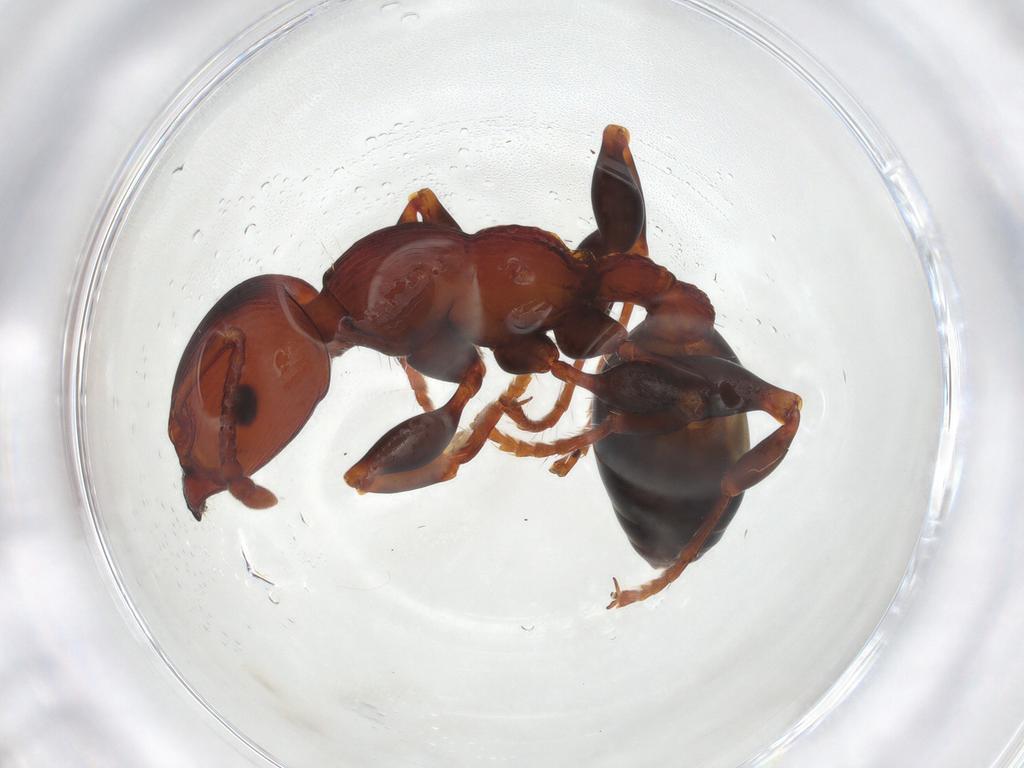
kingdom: Animalia
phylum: Arthropoda
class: Insecta
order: Hymenoptera
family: Formicidae
